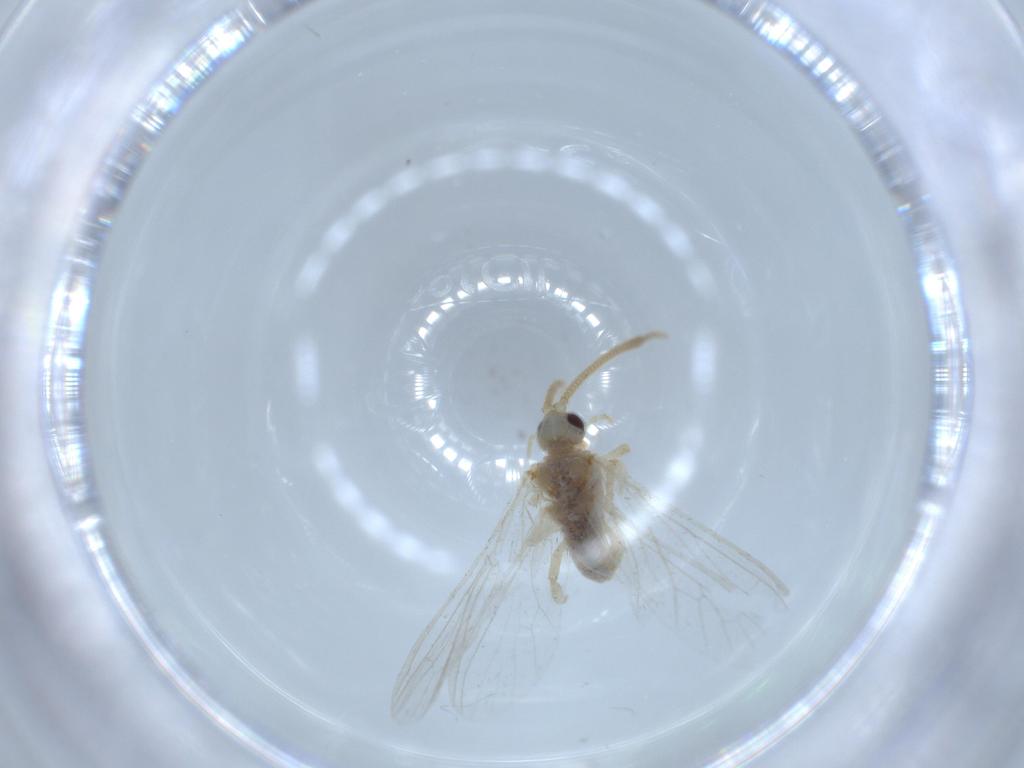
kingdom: Animalia
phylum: Arthropoda
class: Insecta
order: Neuroptera
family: Coniopterygidae
